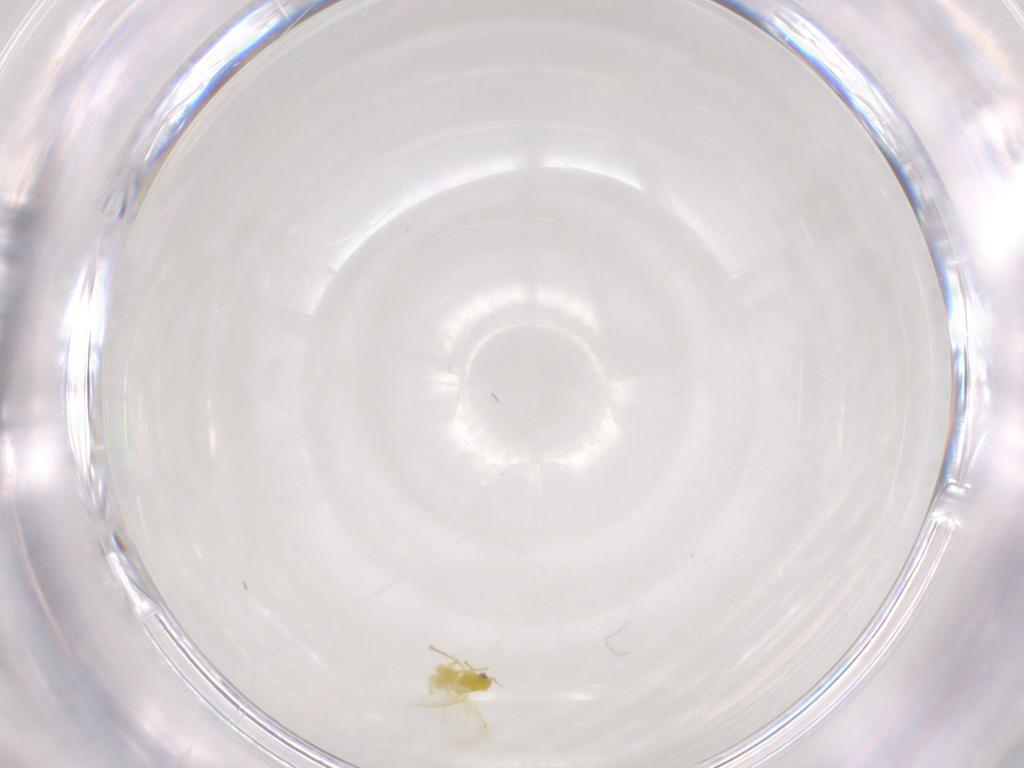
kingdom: Animalia
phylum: Arthropoda
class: Insecta
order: Hemiptera
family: Aleyrodidae
